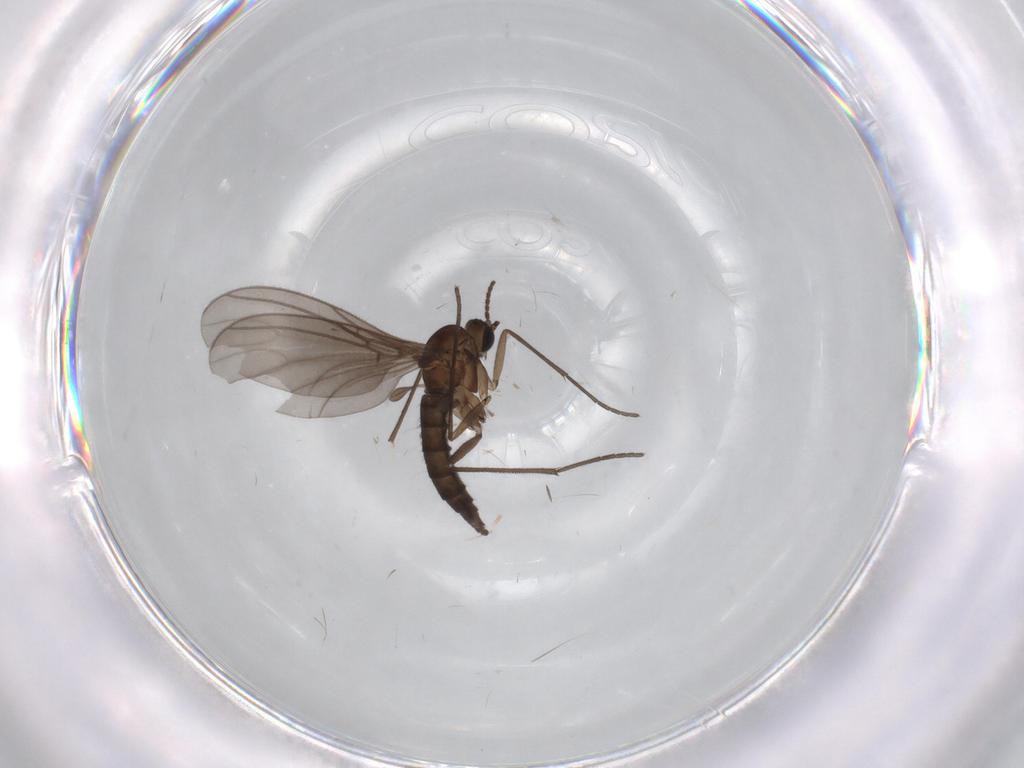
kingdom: Animalia
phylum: Arthropoda
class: Insecta
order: Diptera
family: Sciaridae
